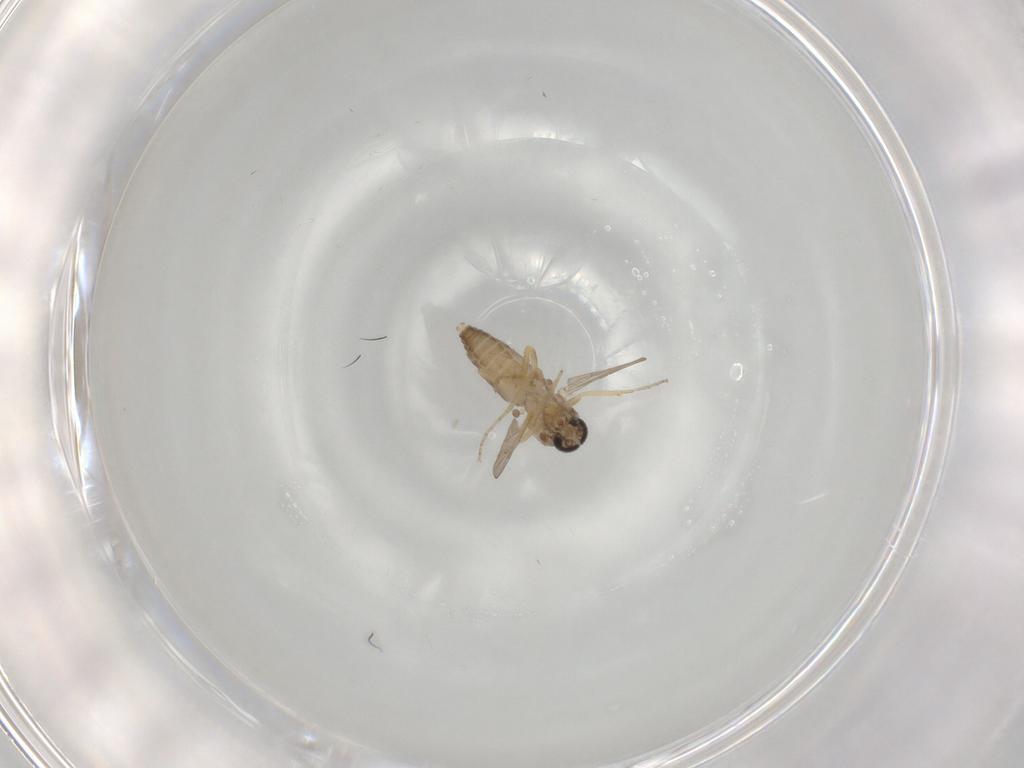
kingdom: Animalia
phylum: Arthropoda
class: Insecta
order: Diptera
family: Ceratopogonidae
